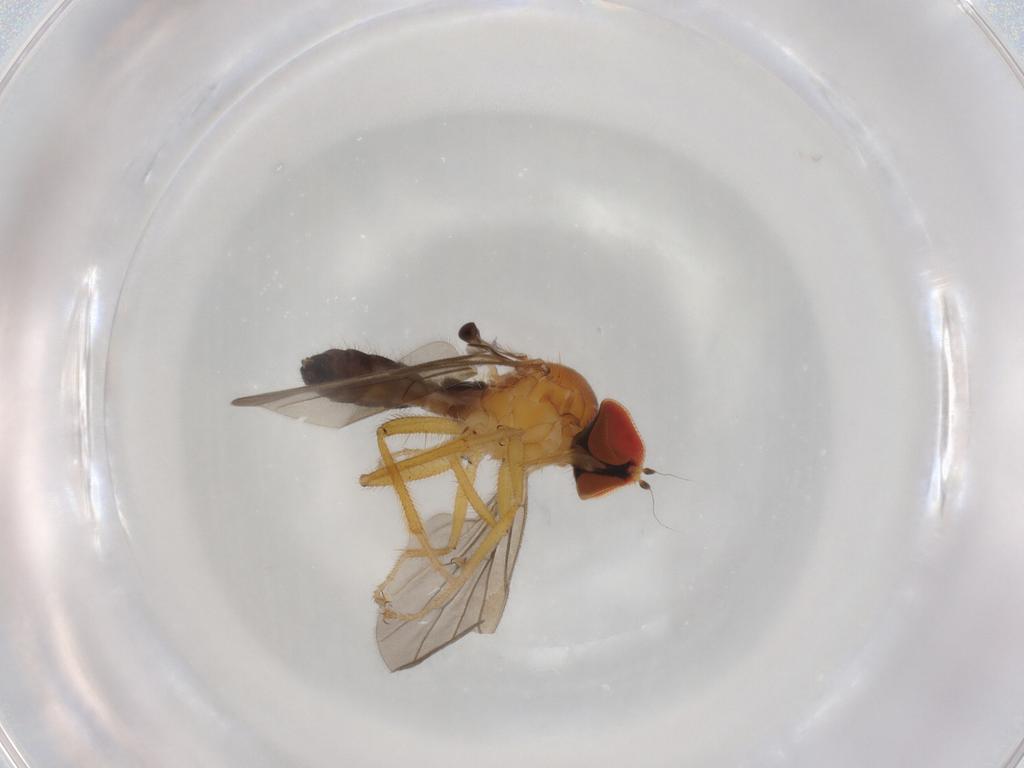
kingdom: Animalia
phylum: Arthropoda
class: Insecta
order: Diptera
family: Hybotidae
